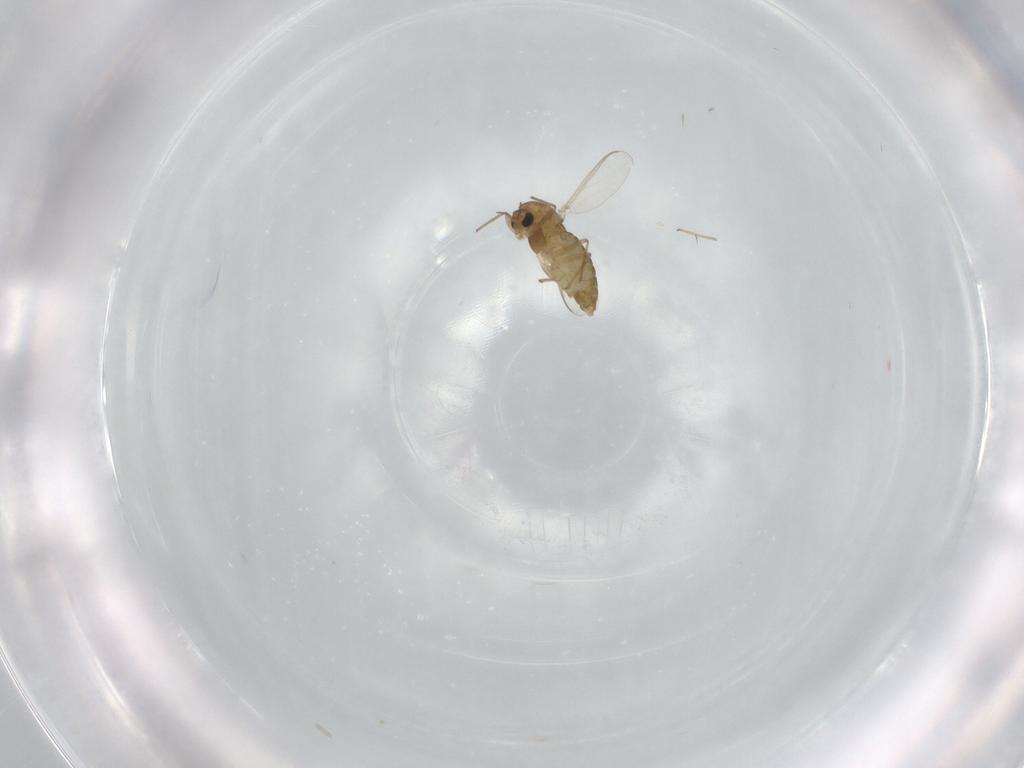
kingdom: Animalia
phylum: Arthropoda
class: Insecta
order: Diptera
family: Chironomidae
